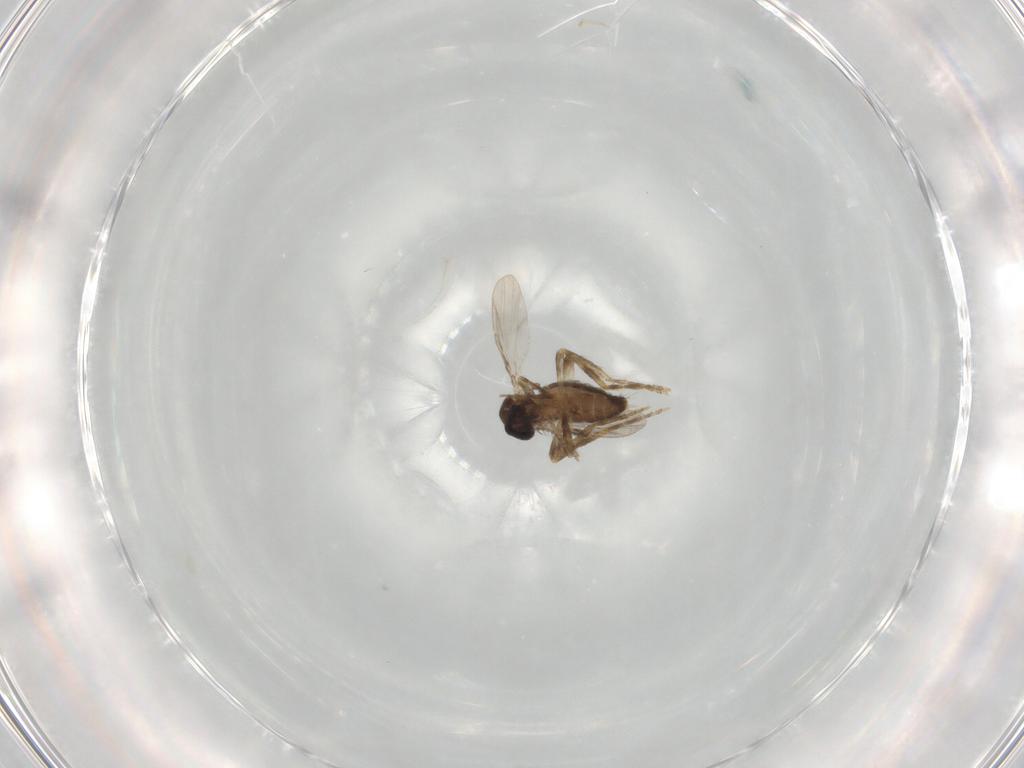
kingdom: Animalia
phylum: Arthropoda
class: Insecta
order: Diptera
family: Ceratopogonidae
